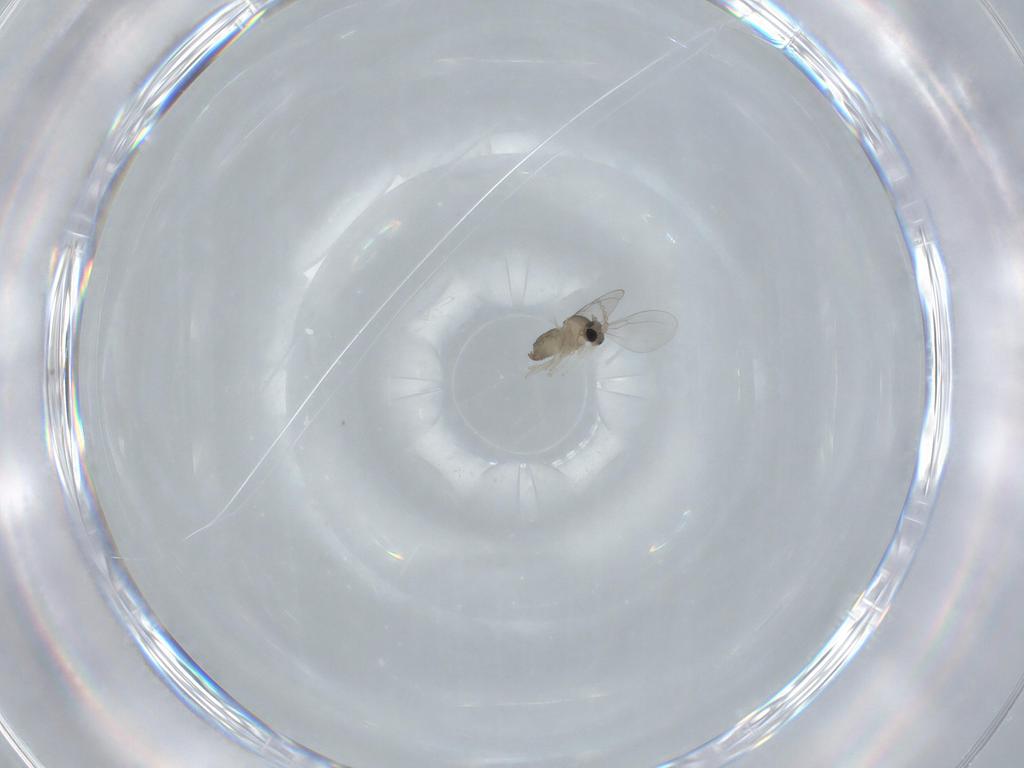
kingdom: Animalia
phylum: Arthropoda
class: Insecta
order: Diptera
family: Cecidomyiidae
